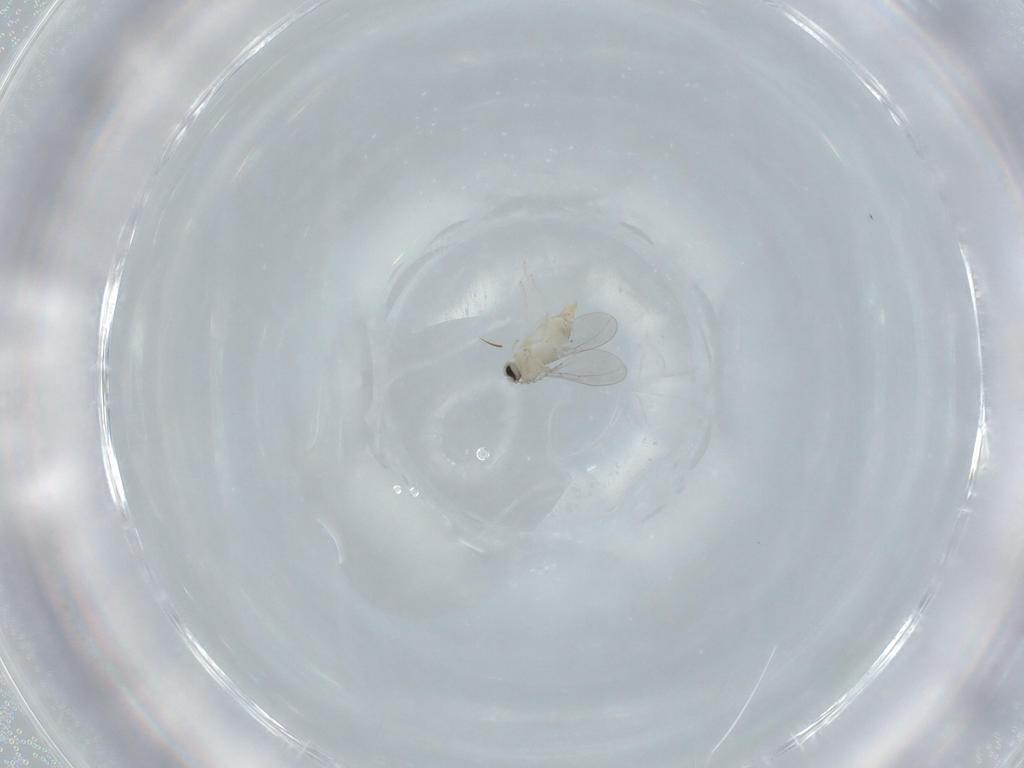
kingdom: Animalia
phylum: Arthropoda
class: Insecta
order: Diptera
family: Cecidomyiidae
